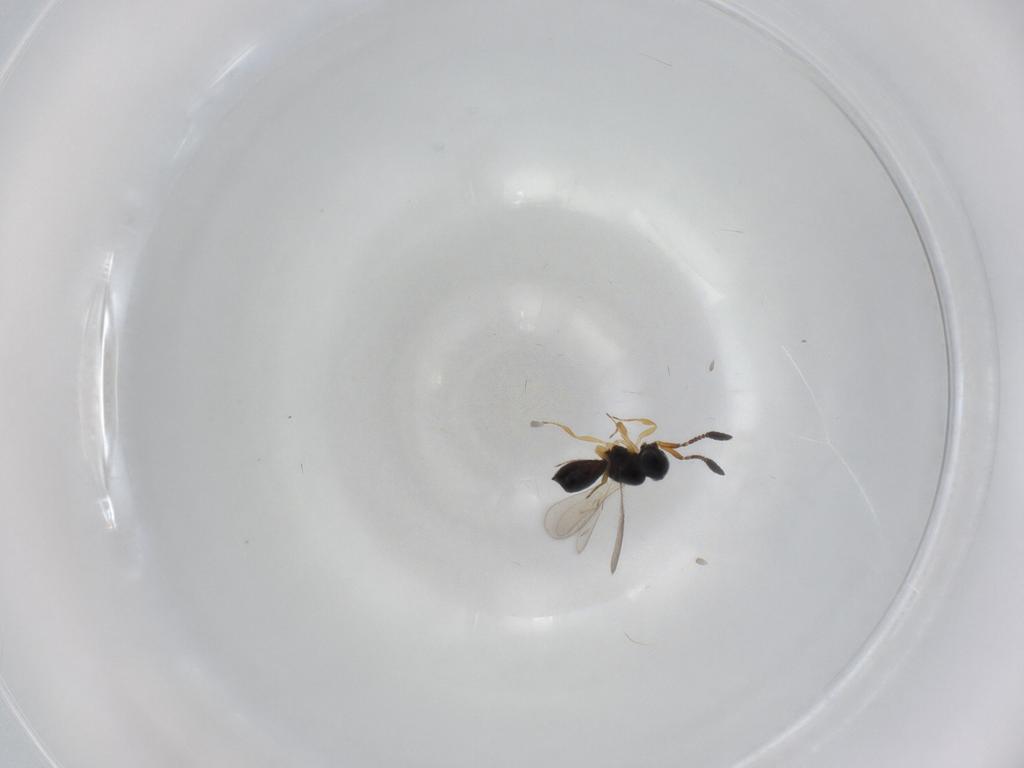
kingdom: Animalia
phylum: Arthropoda
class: Insecta
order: Hymenoptera
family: Scelionidae
